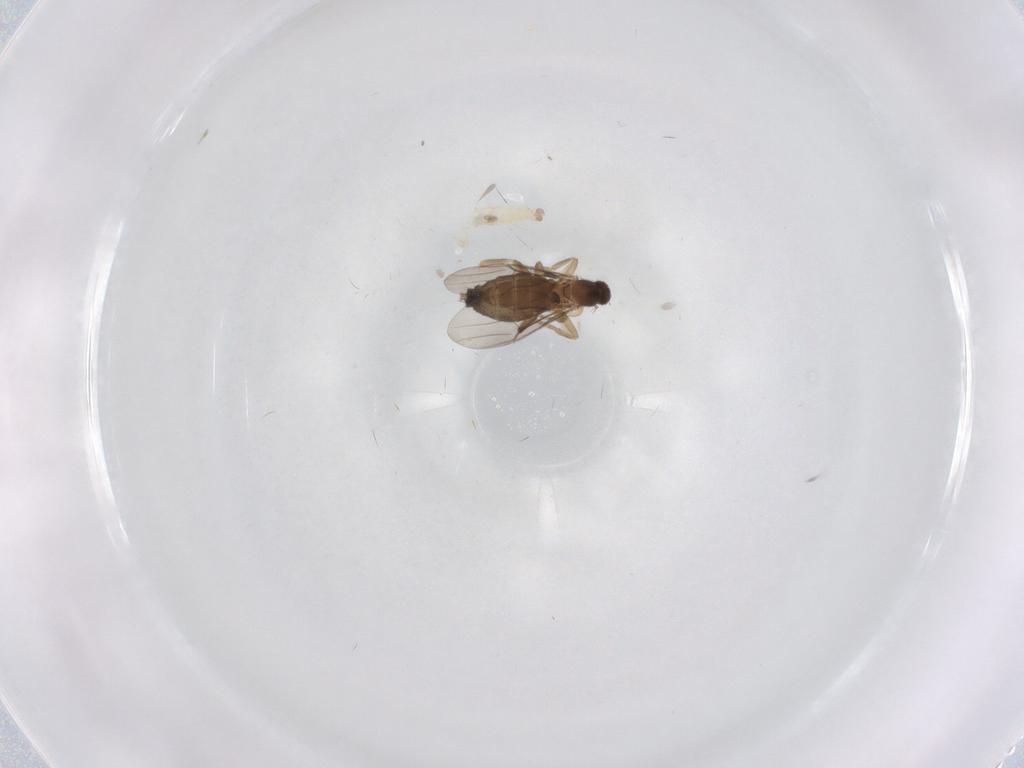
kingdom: Animalia
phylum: Arthropoda
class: Insecta
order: Diptera
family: Cecidomyiidae
